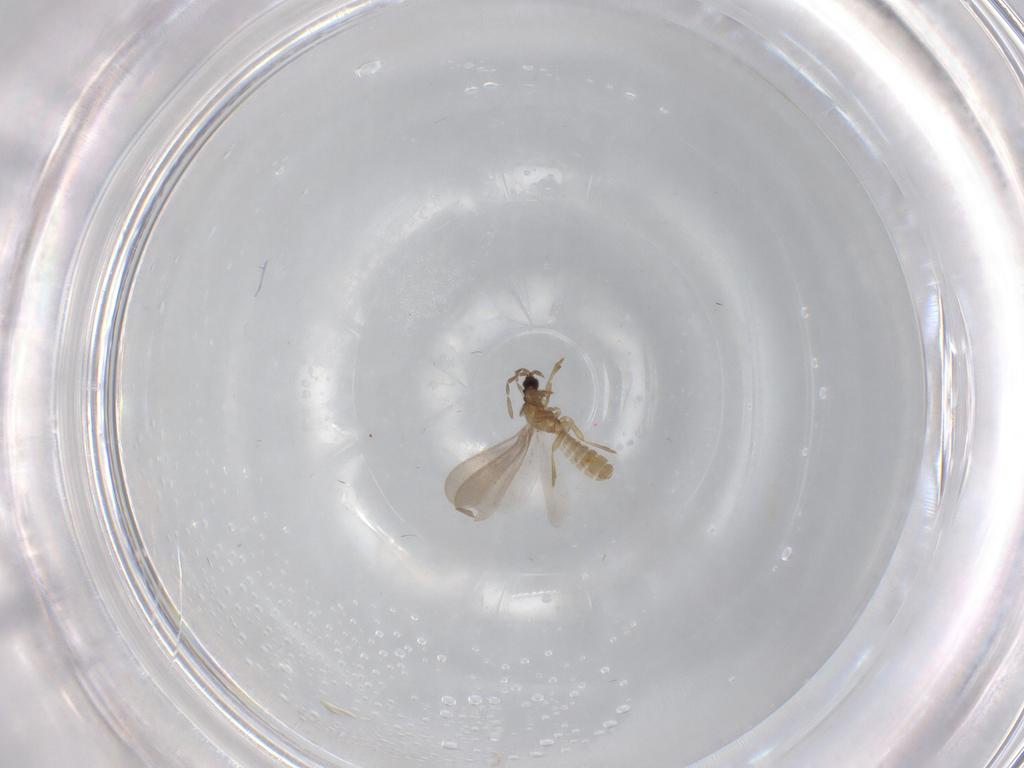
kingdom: Animalia
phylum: Arthropoda
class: Insecta
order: Hemiptera
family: Enicocephalidae
